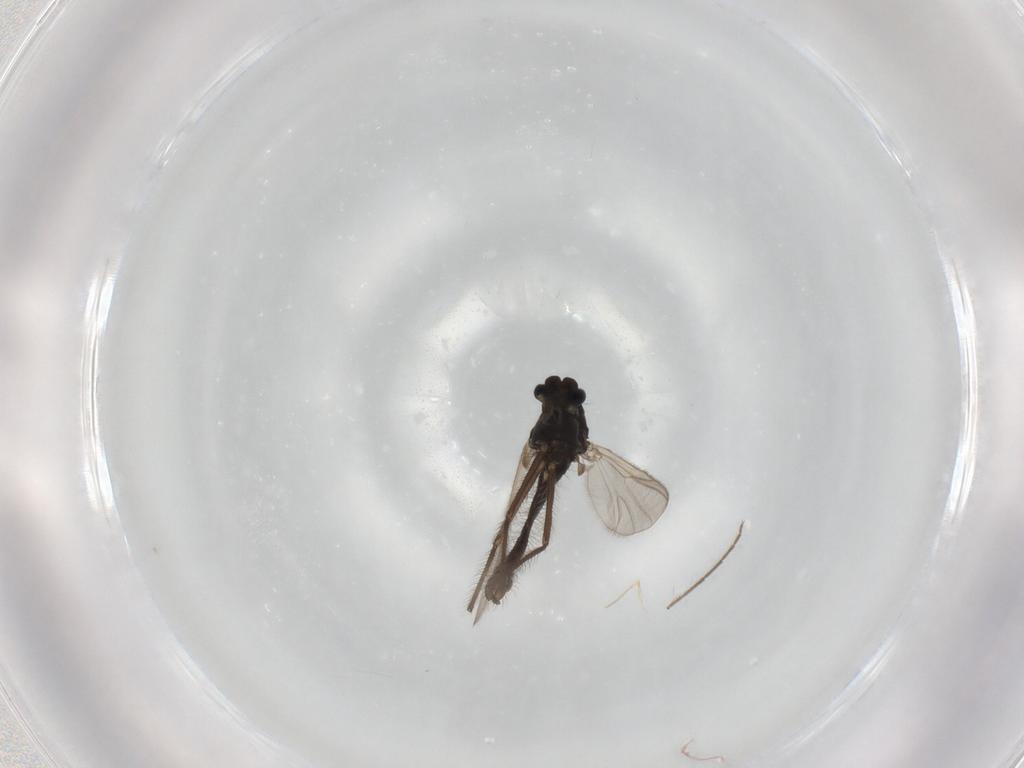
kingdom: Animalia
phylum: Arthropoda
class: Insecta
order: Diptera
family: Chironomidae
